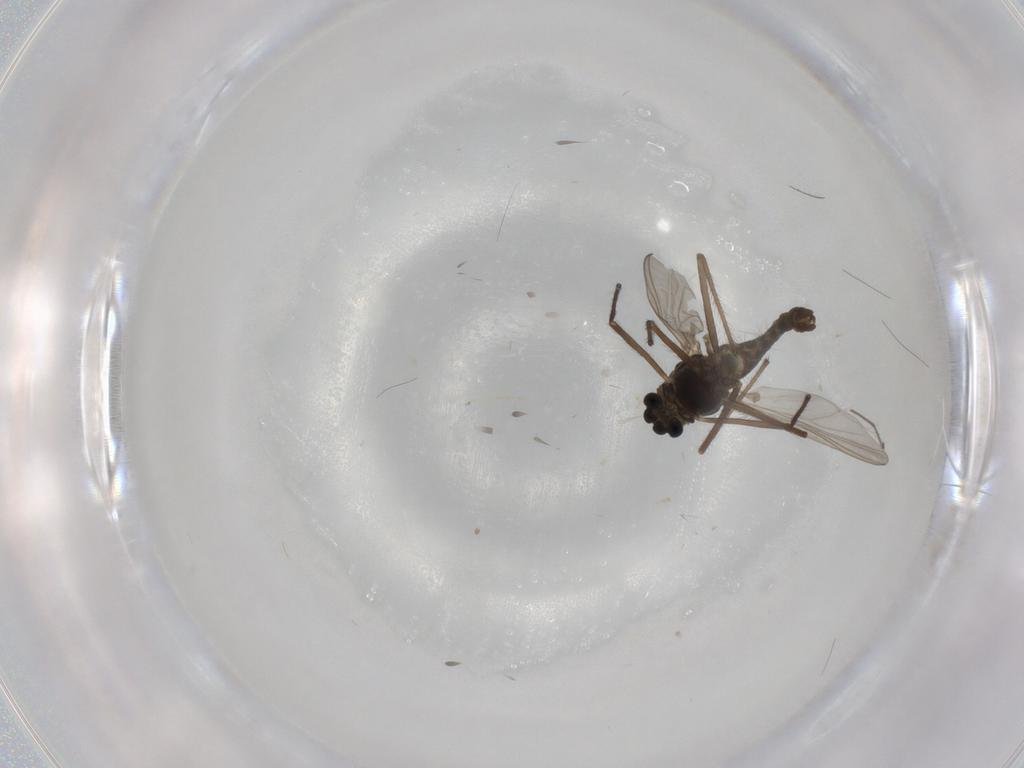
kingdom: Animalia
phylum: Arthropoda
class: Insecta
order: Diptera
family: Chironomidae
